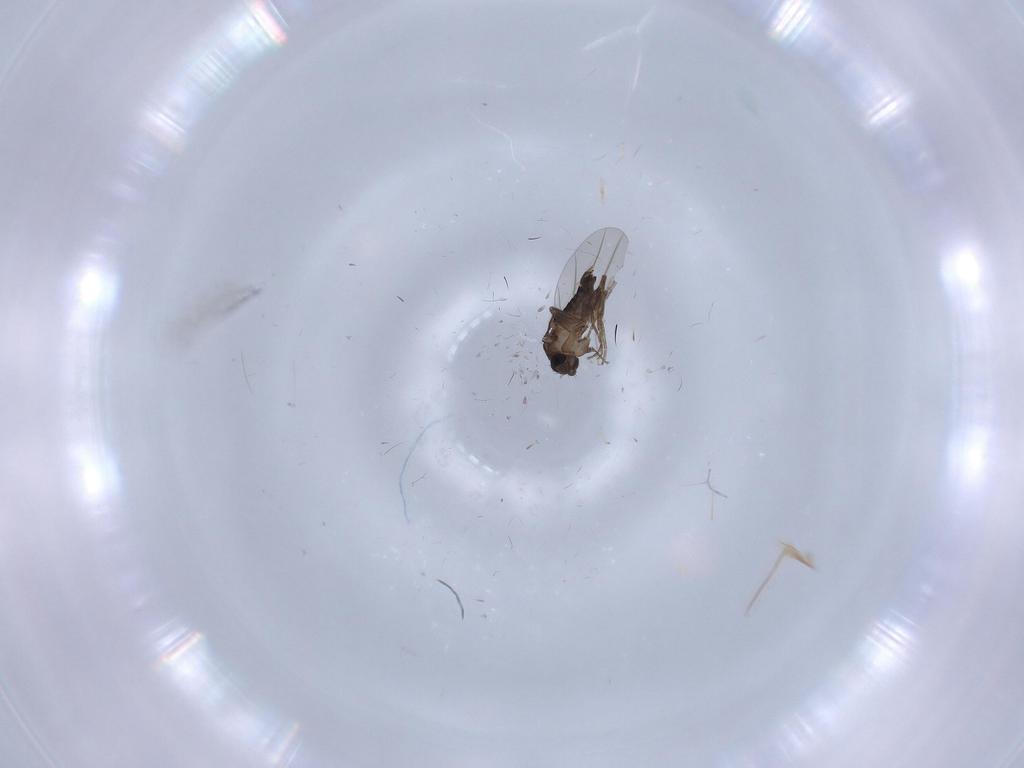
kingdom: Animalia
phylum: Arthropoda
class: Insecta
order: Diptera
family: Phoridae
